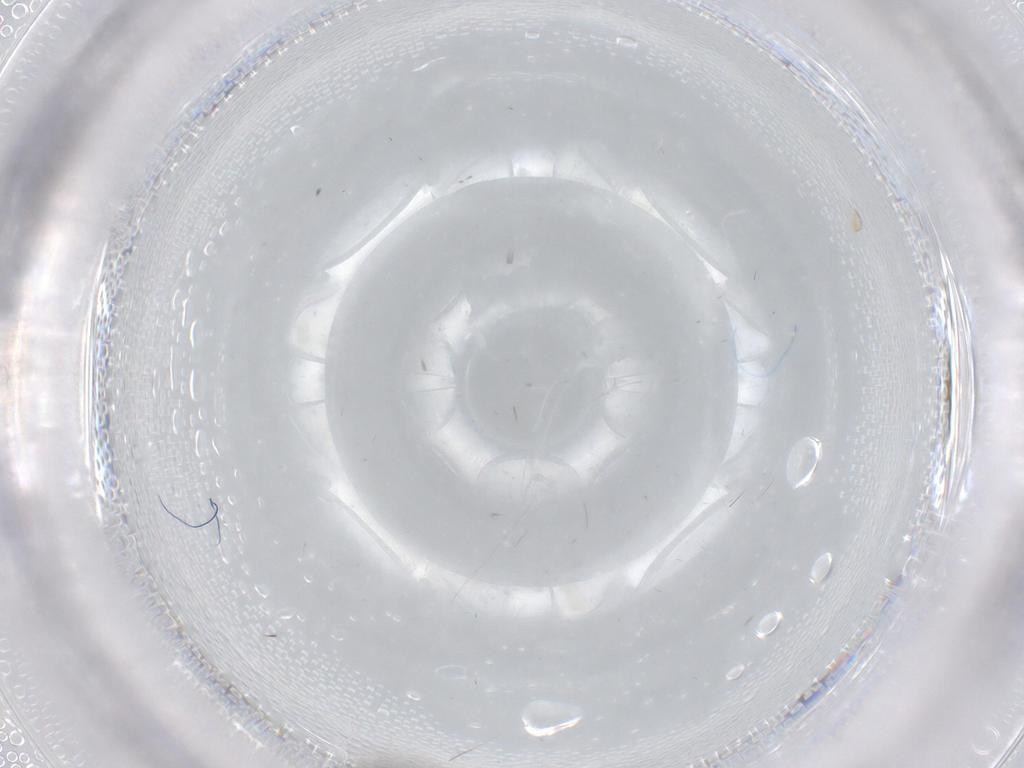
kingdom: Animalia
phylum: Arthropoda
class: Insecta
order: Diptera
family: Chironomidae
